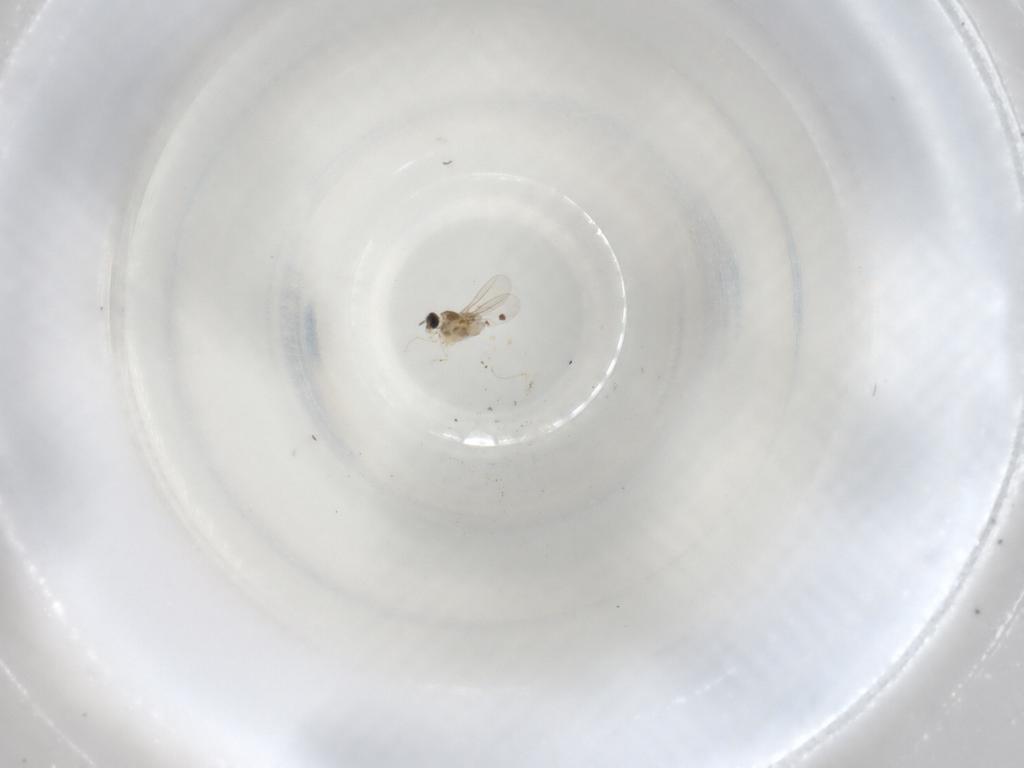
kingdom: Animalia
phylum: Arthropoda
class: Insecta
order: Diptera
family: Cecidomyiidae
